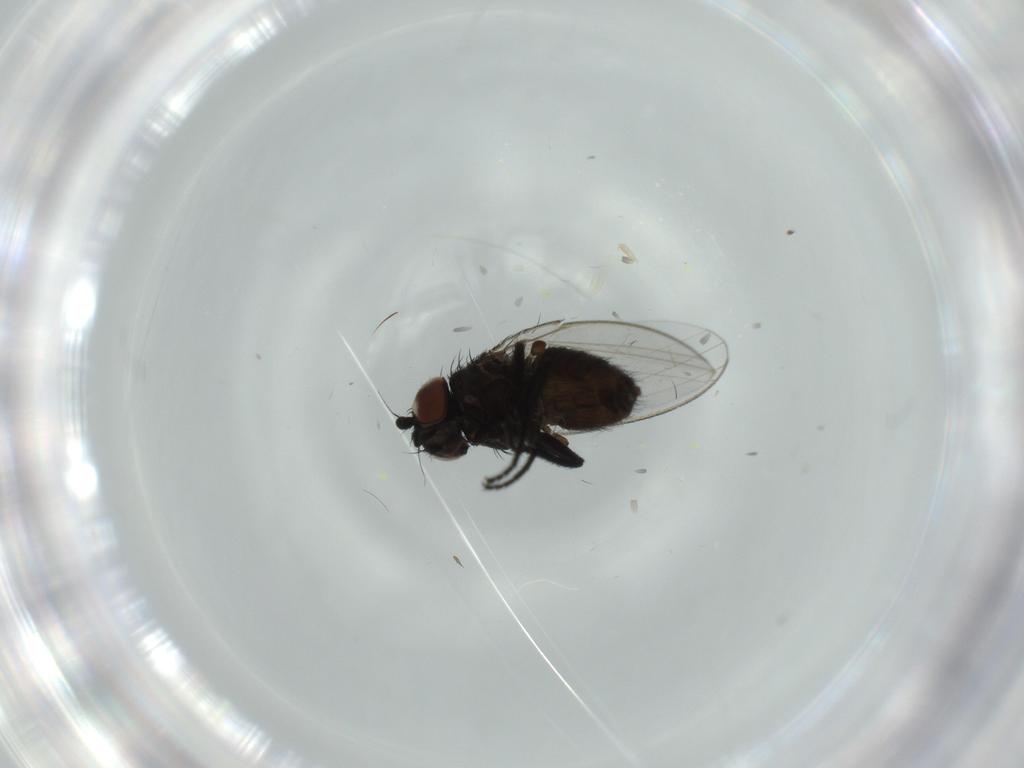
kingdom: Animalia
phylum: Arthropoda
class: Insecta
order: Diptera
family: Milichiidae
